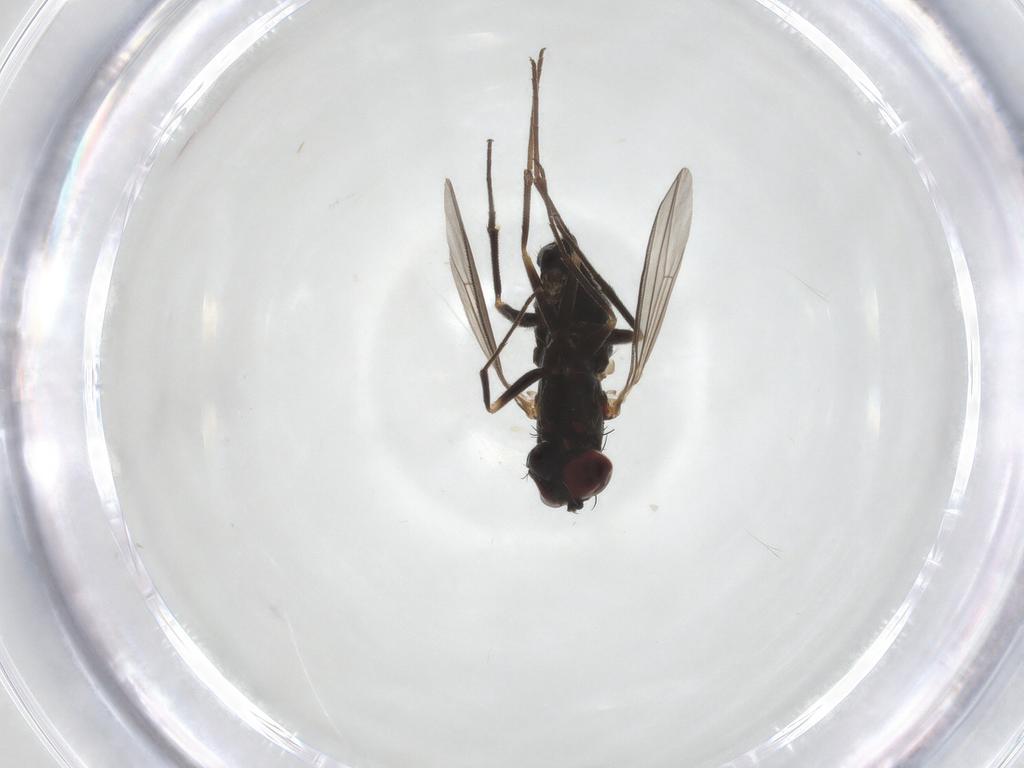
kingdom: Animalia
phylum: Arthropoda
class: Insecta
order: Diptera
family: Dolichopodidae
